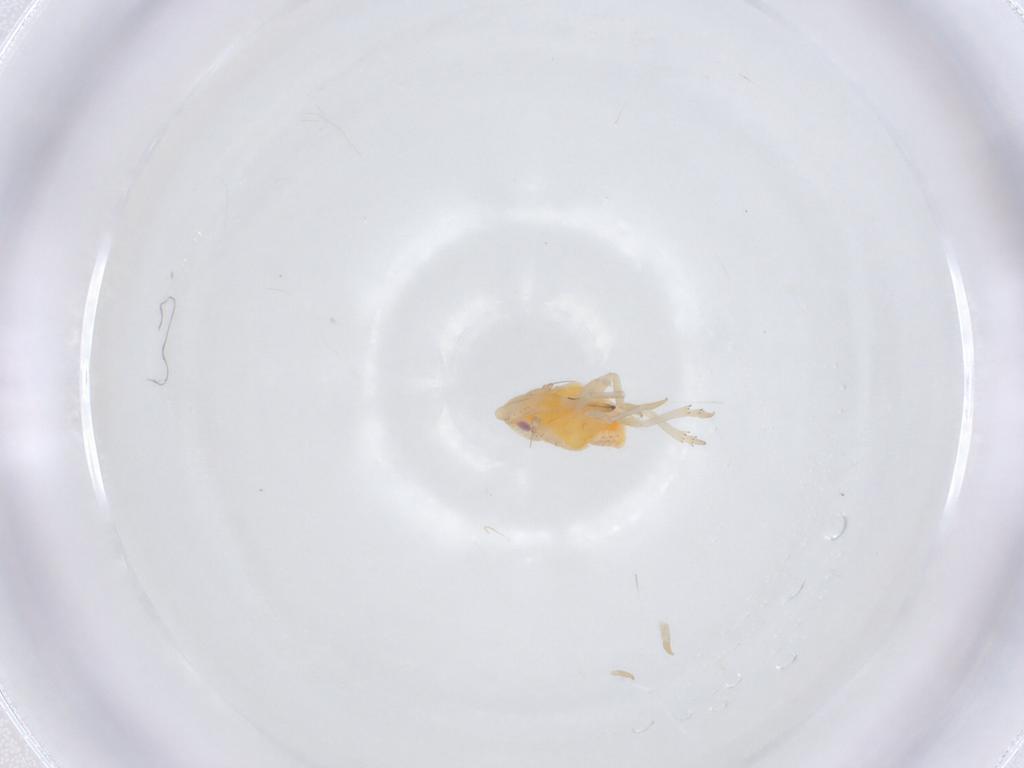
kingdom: Animalia
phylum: Arthropoda
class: Insecta
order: Hemiptera
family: Flatidae
